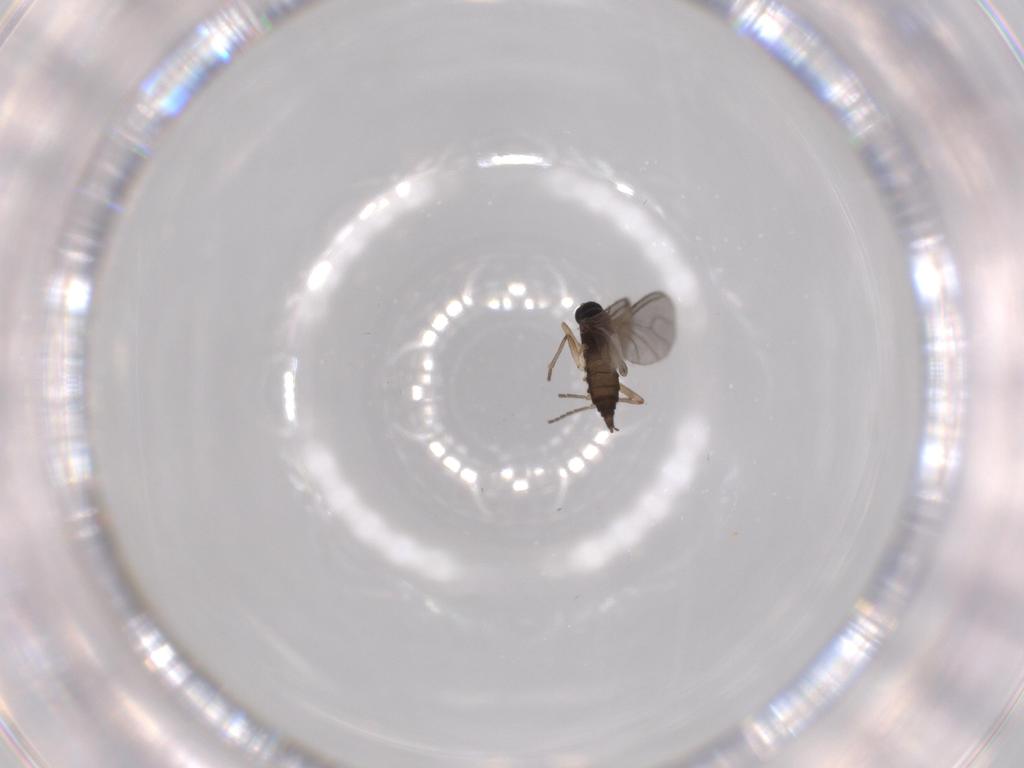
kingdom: Animalia
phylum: Arthropoda
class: Insecta
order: Diptera
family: Sciaridae
